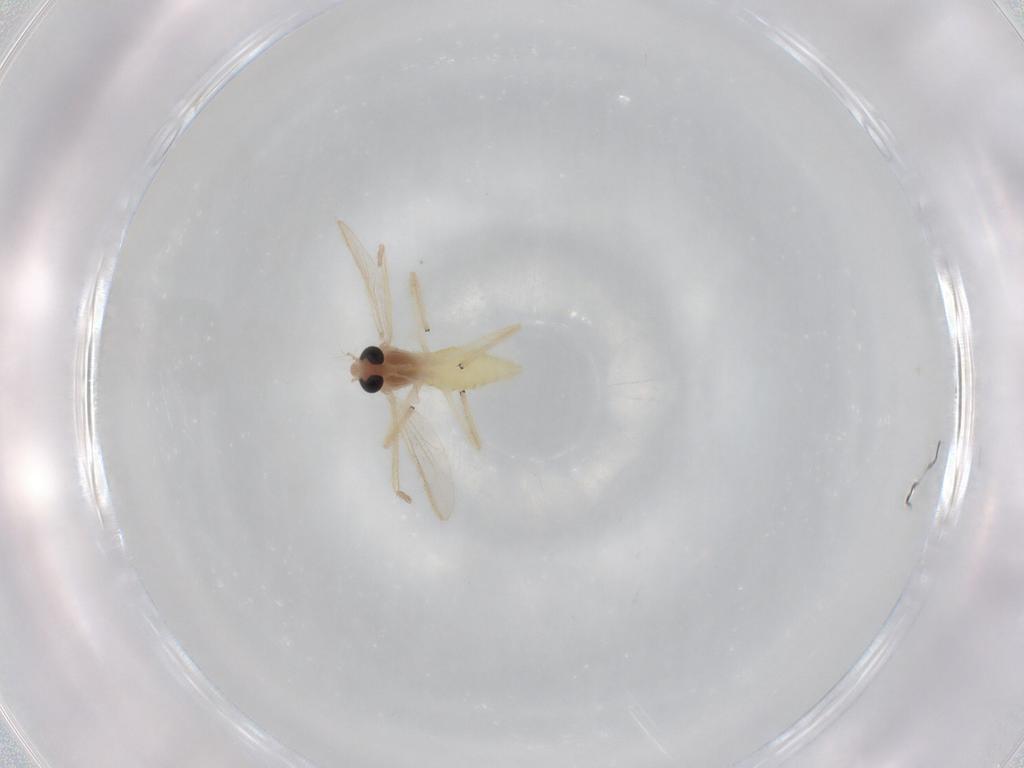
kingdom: Animalia
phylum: Arthropoda
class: Insecta
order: Diptera
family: Chironomidae
